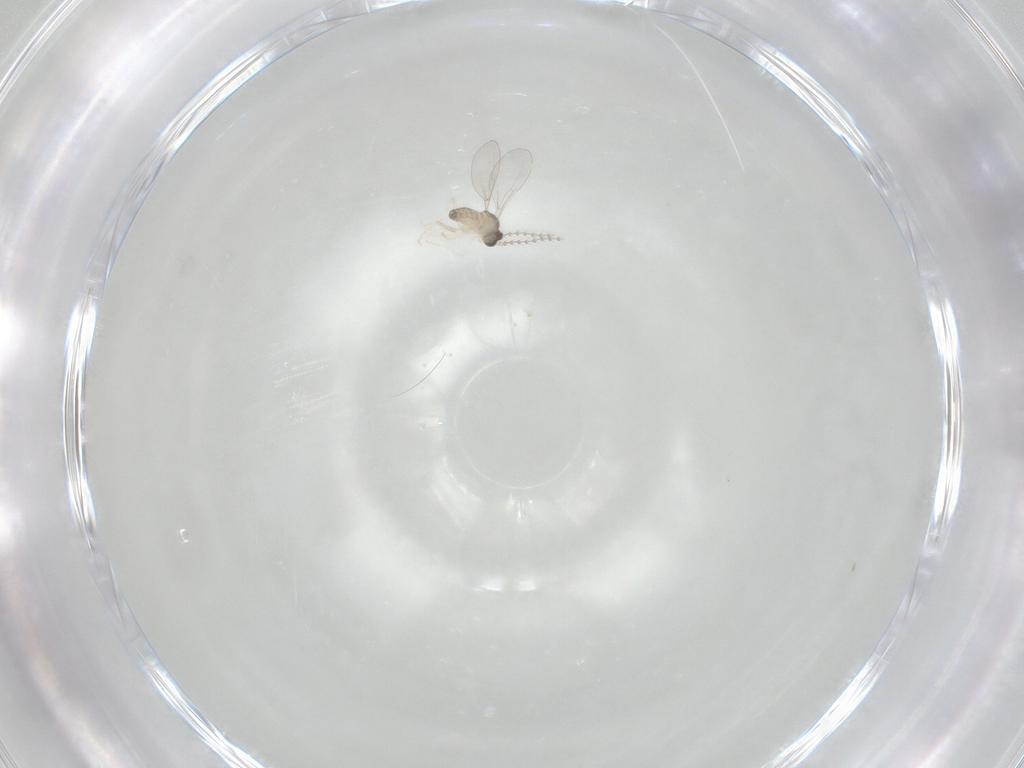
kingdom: Animalia
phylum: Arthropoda
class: Insecta
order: Diptera
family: Cecidomyiidae
